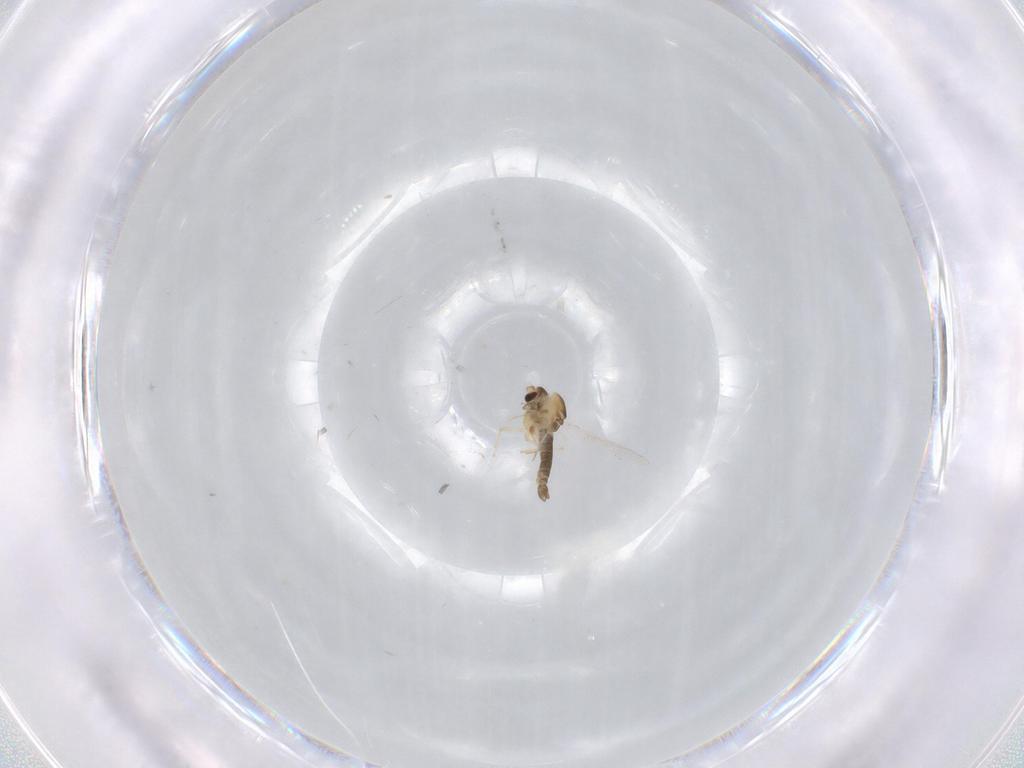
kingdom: Animalia
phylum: Arthropoda
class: Insecta
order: Diptera
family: Chironomidae
